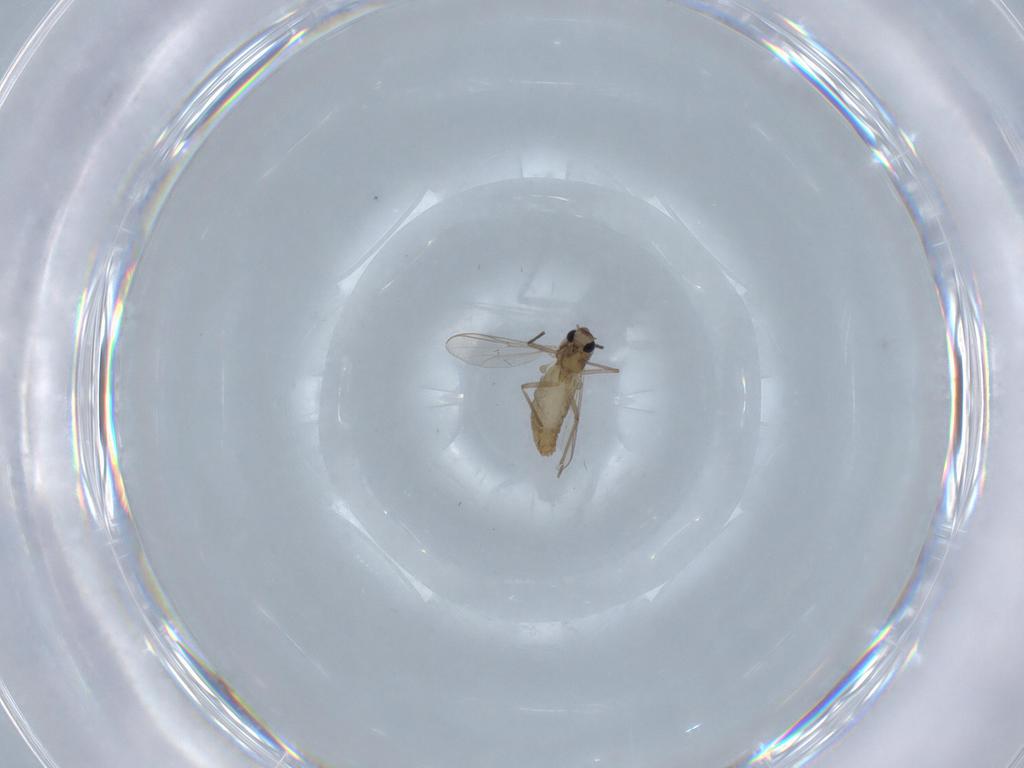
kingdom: Animalia
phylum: Arthropoda
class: Insecta
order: Diptera
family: Chironomidae
